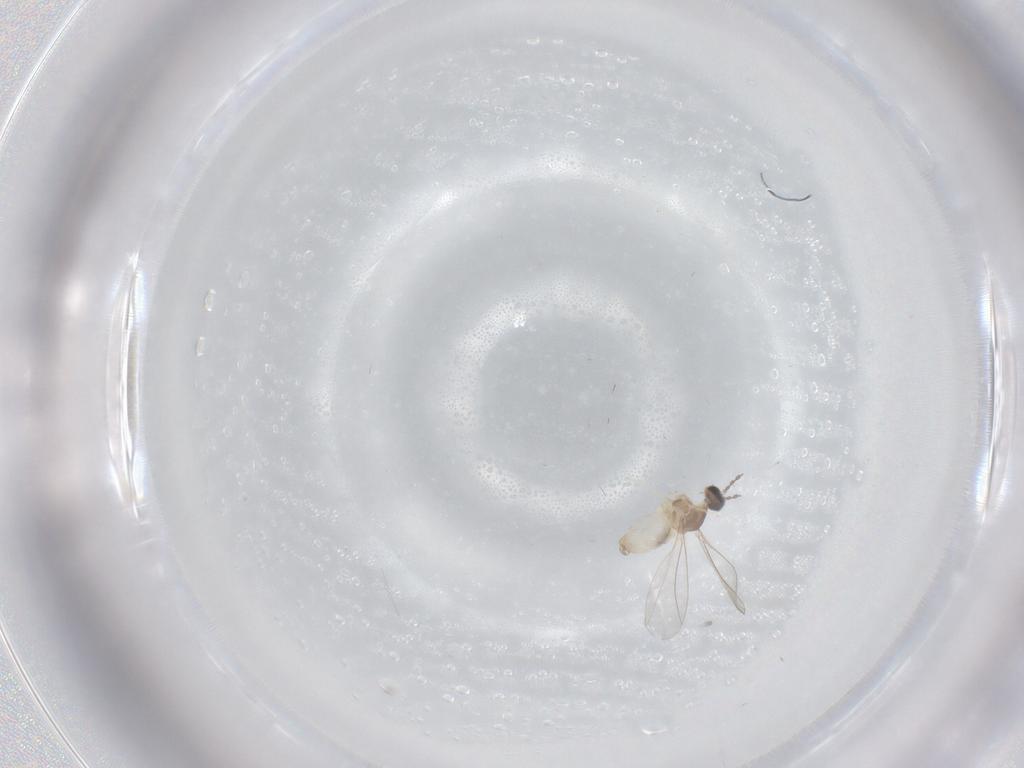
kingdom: Animalia
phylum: Arthropoda
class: Insecta
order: Diptera
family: Cecidomyiidae
